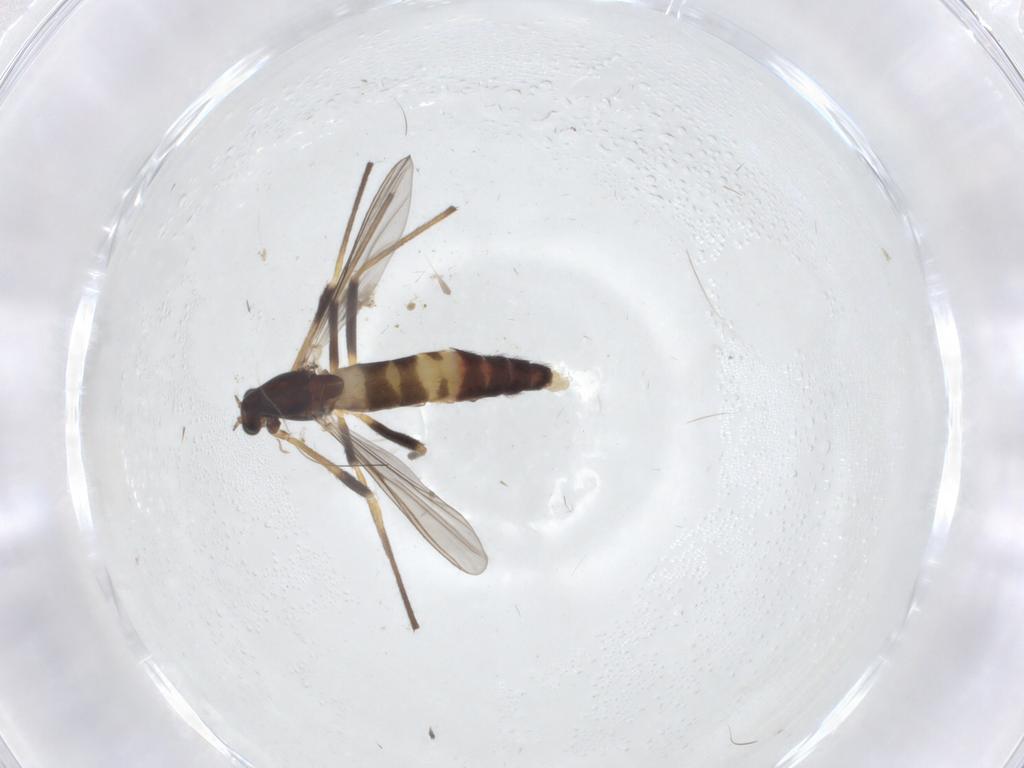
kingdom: Animalia
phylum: Arthropoda
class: Insecta
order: Diptera
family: Chironomidae
